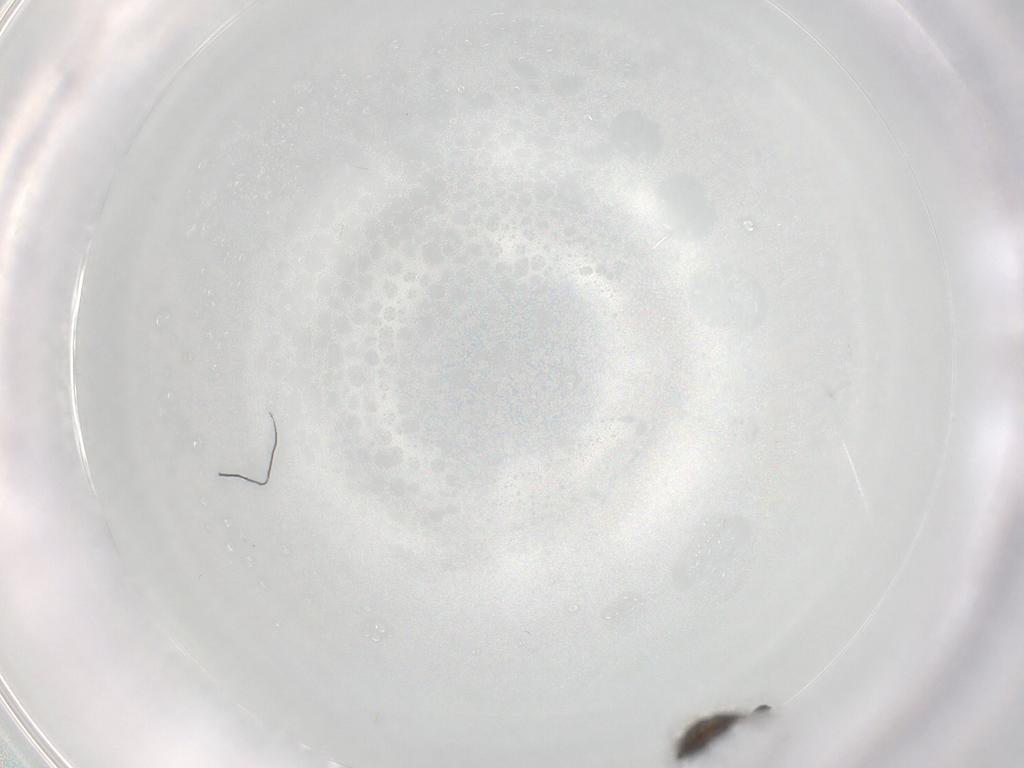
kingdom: Animalia
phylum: Arthropoda
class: Insecta
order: Diptera
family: Chironomidae
